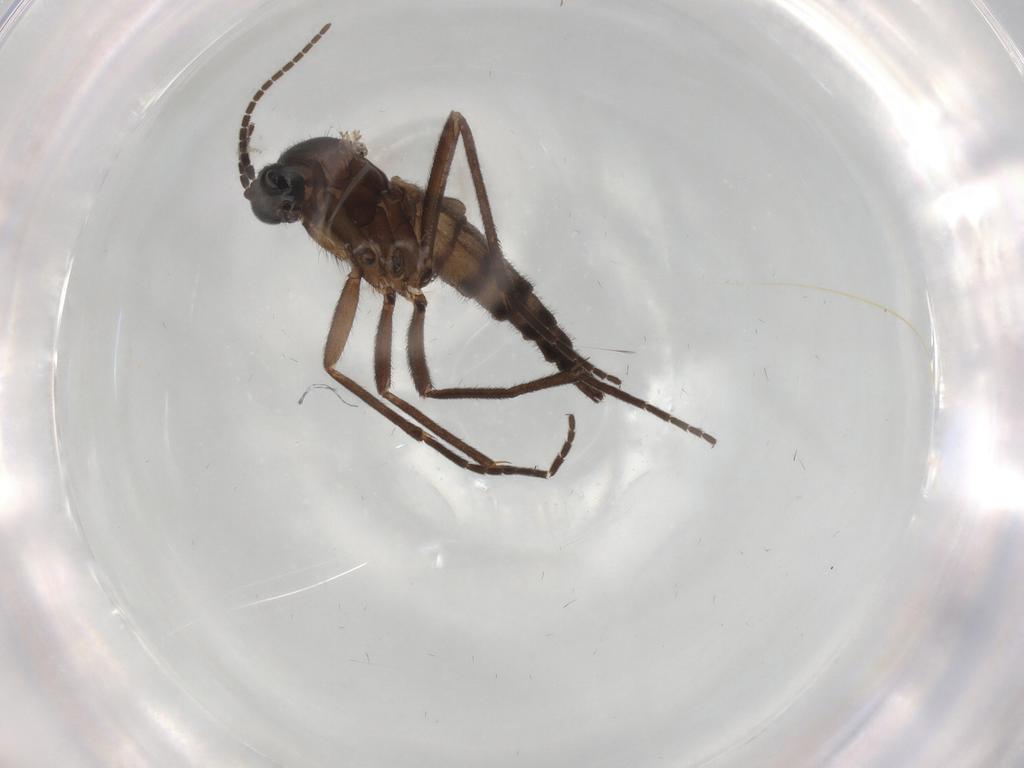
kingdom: Animalia
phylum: Arthropoda
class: Insecta
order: Diptera
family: Sciaridae
